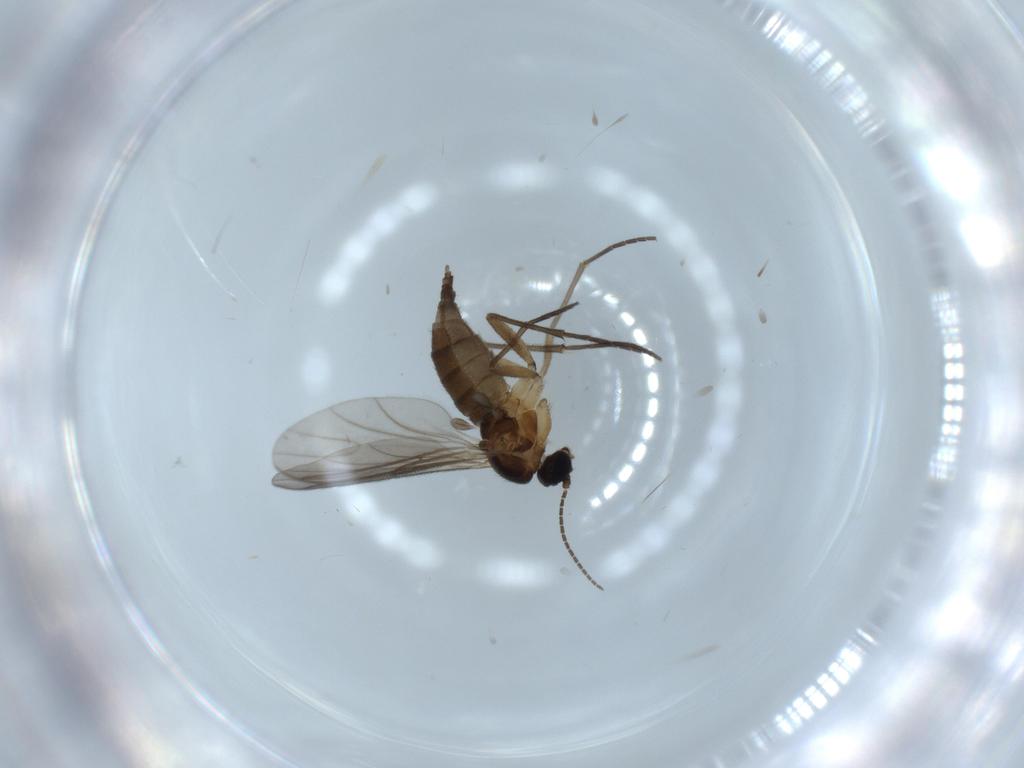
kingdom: Animalia
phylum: Arthropoda
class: Insecta
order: Diptera
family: Sciaridae
